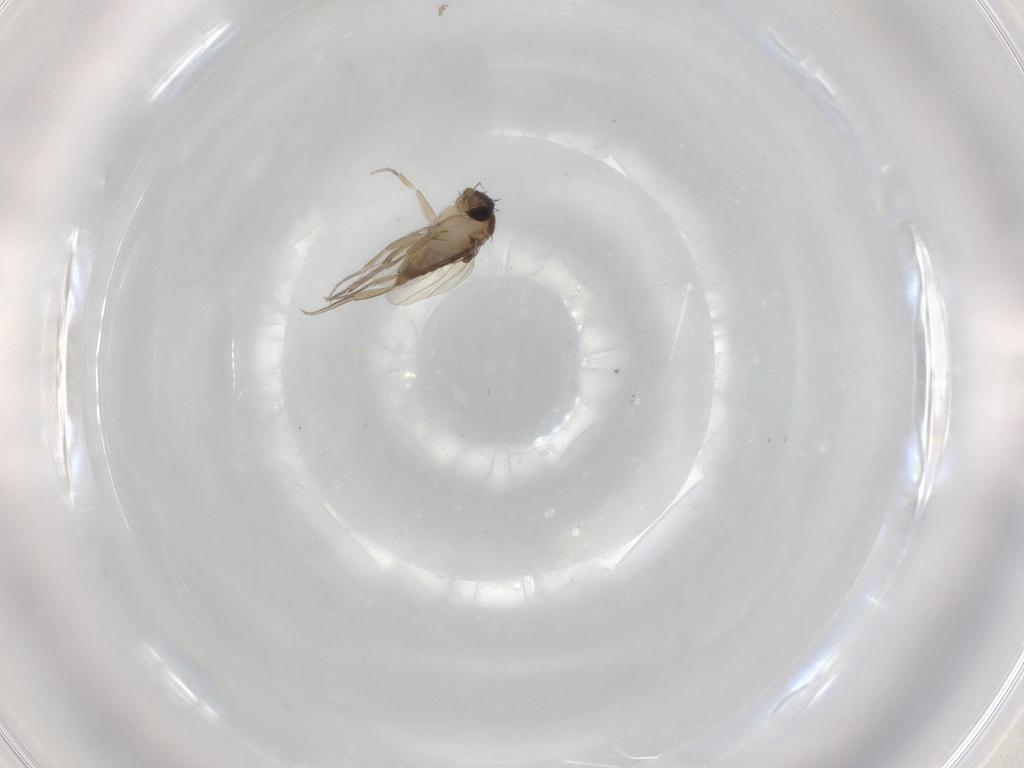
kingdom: Animalia
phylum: Arthropoda
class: Insecta
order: Diptera
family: Phoridae
